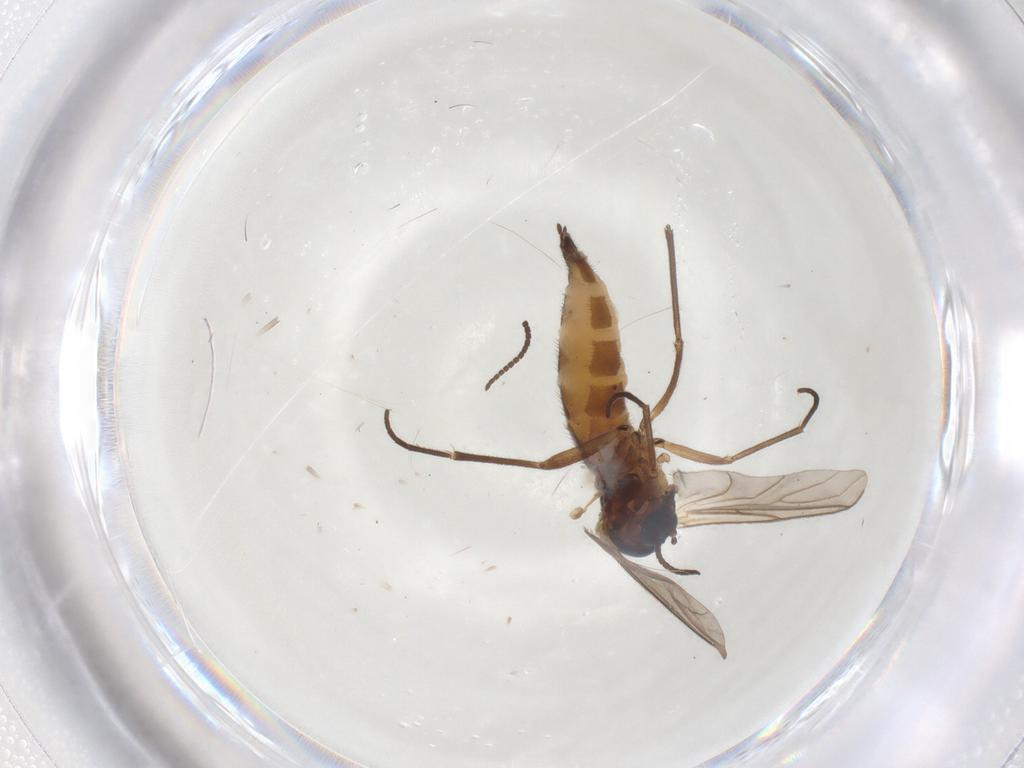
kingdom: Animalia
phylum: Arthropoda
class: Insecta
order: Diptera
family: Sciaridae
